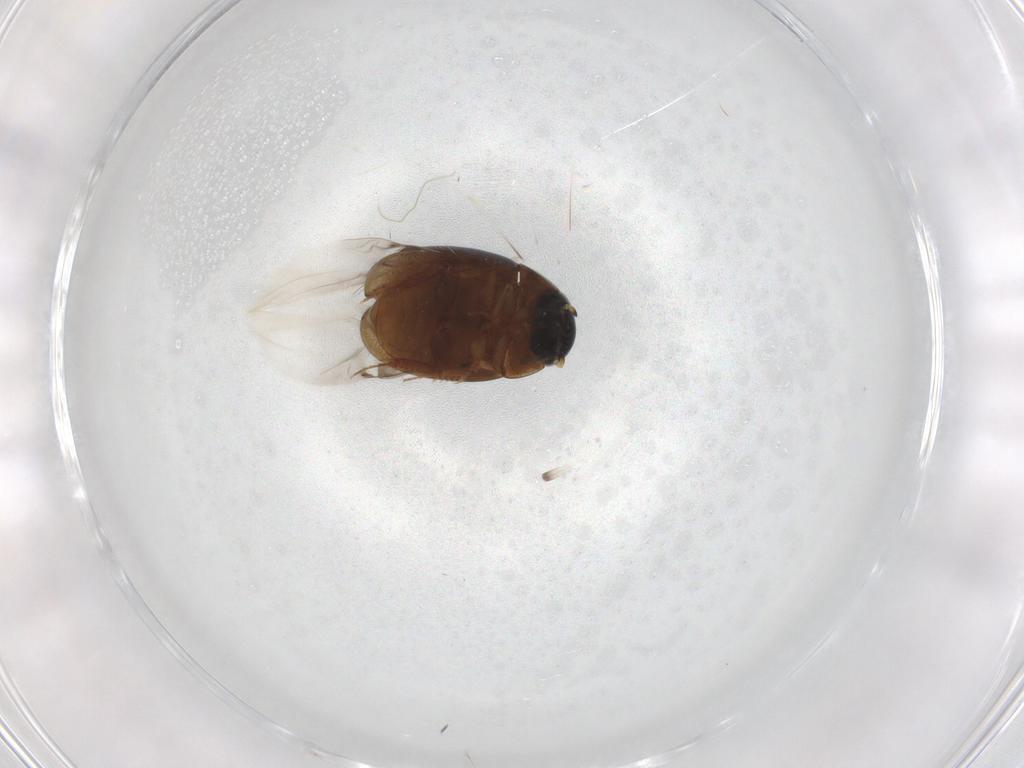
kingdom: Animalia
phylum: Arthropoda
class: Insecta
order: Coleoptera
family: Hydrophilidae
